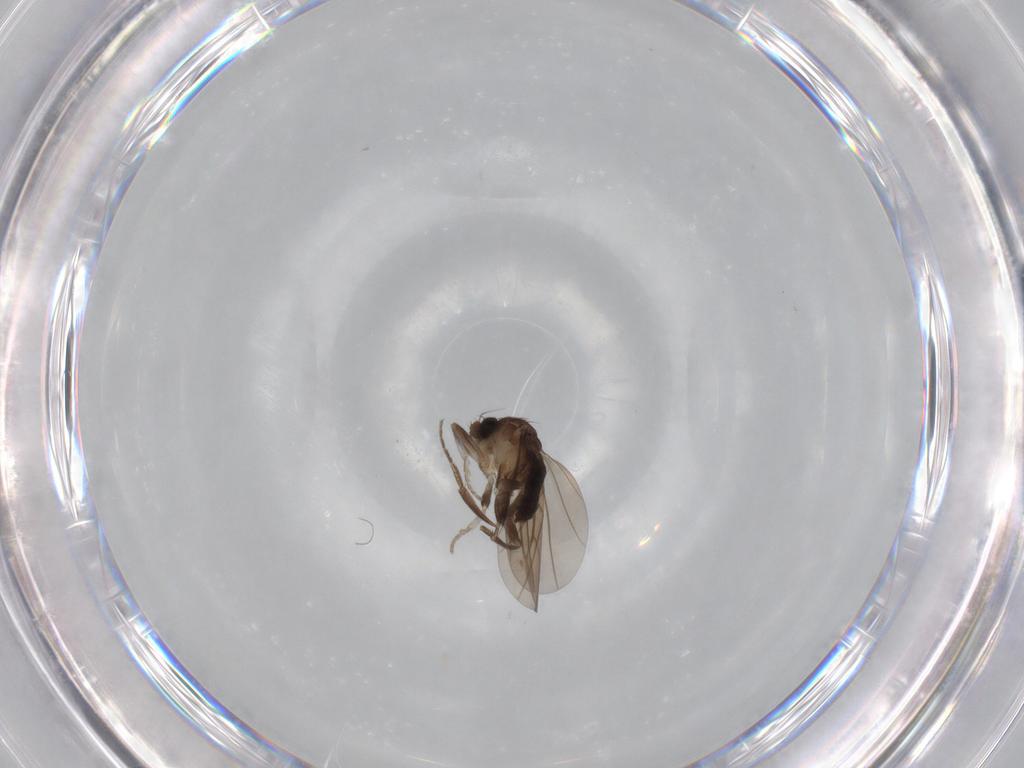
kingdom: Animalia
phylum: Arthropoda
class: Insecta
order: Diptera
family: Phoridae
